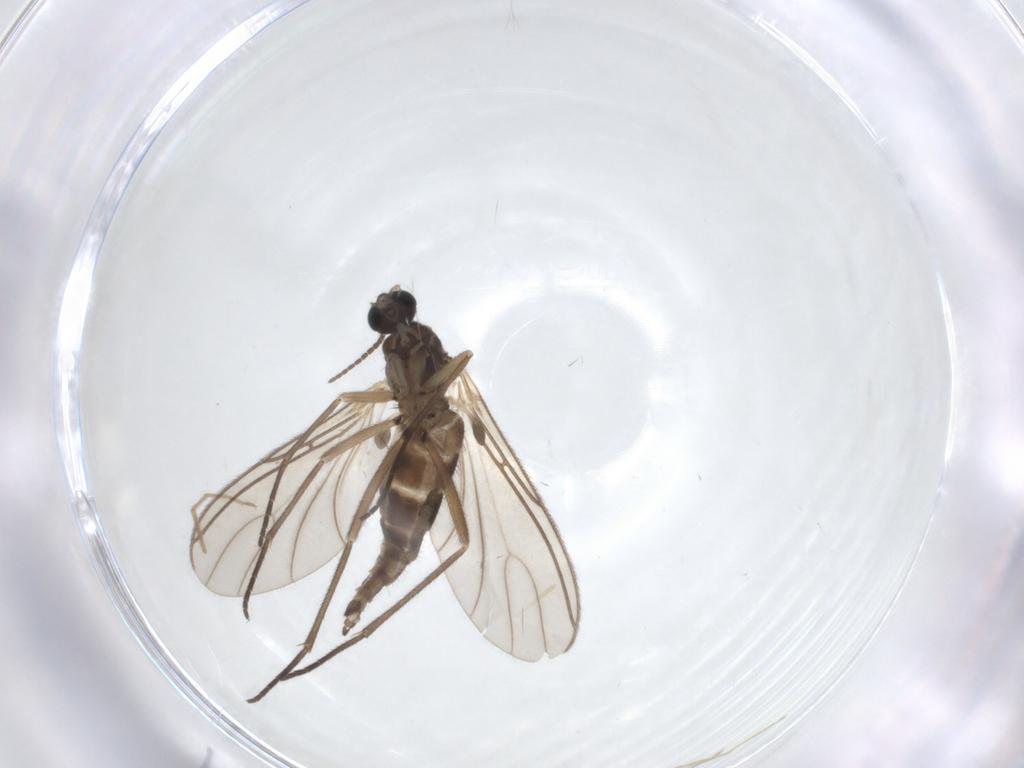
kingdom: Animalia
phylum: Arthropoda
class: Insecta
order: Diptera
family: Sciaridae
